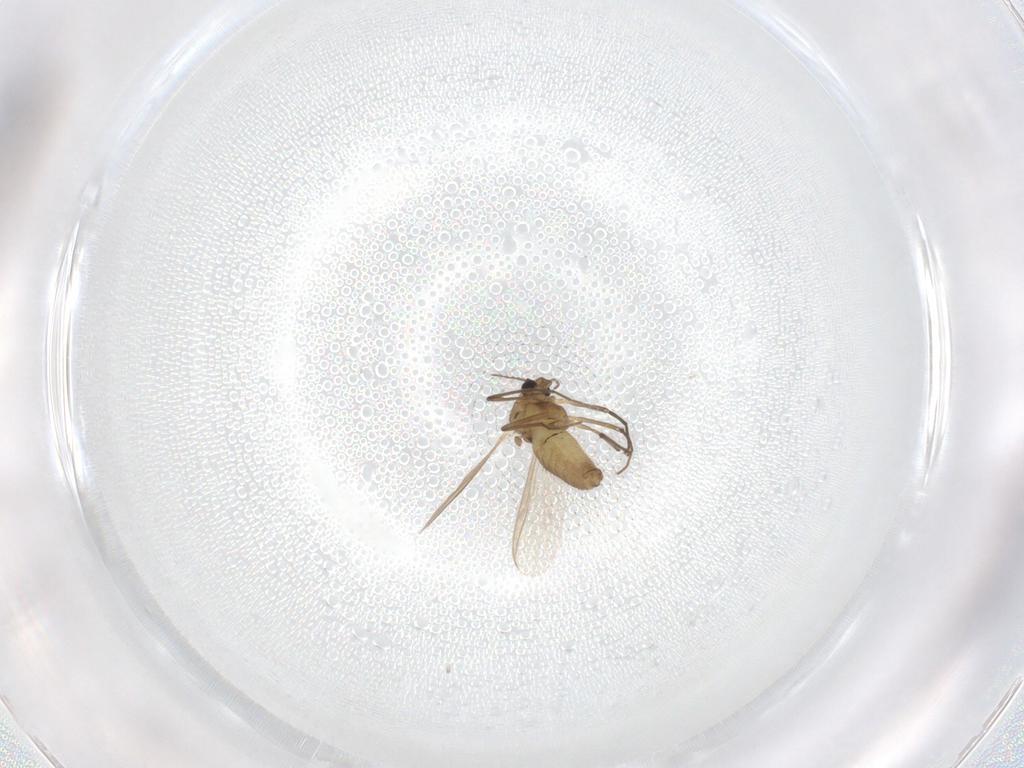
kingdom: Animalia
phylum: Arthropoda
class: Insecta
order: Diptera
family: Chironomidae
